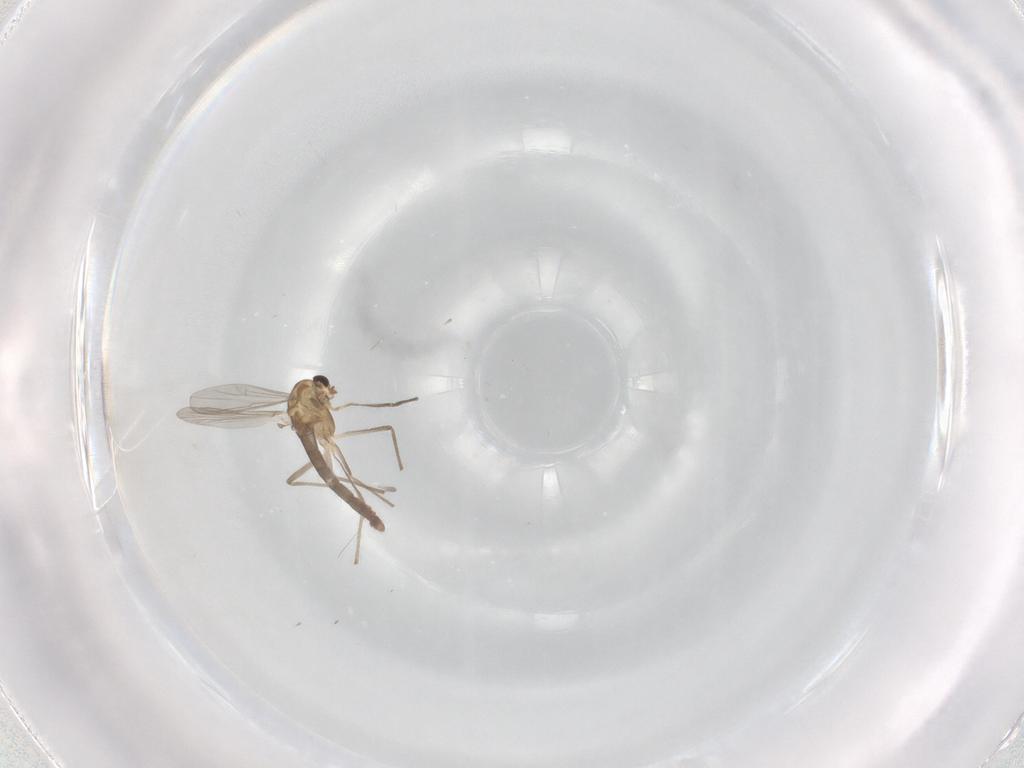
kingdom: Animalia
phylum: Arthropoda
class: Insecta
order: Diptera
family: Chironomidae
